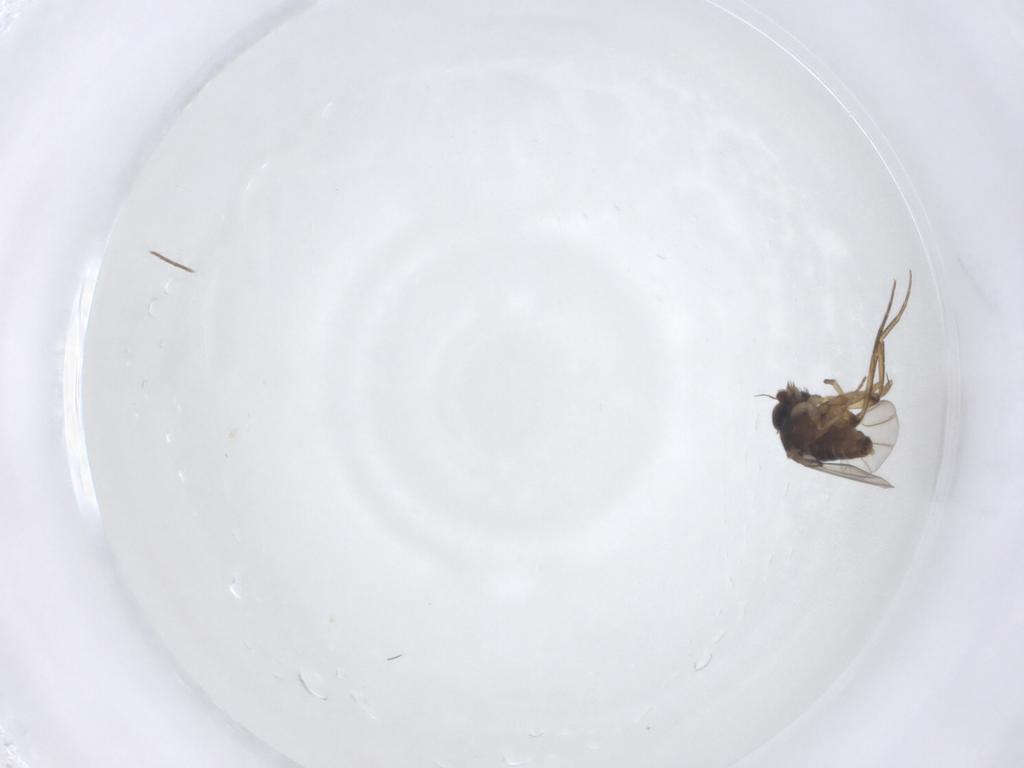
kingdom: Animalia
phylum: Arthropoda
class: Insecta
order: Diptera
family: Phoridae
